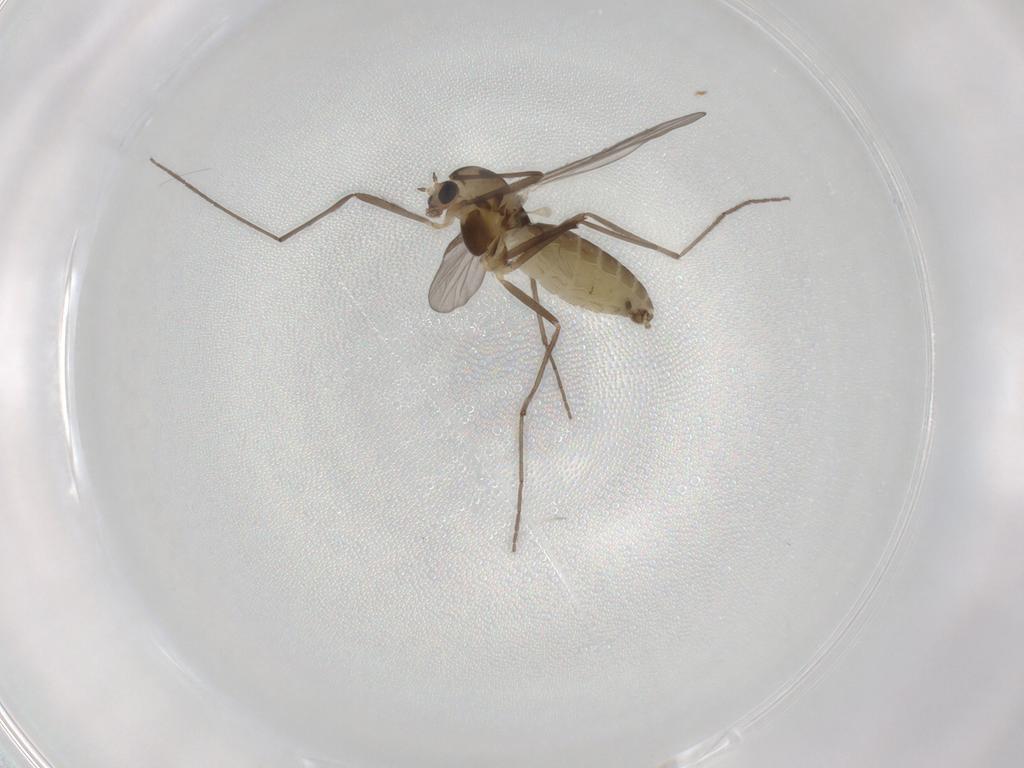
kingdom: Animalia
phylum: Arthropoda
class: Insecta
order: Diptera
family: Chironomidae
